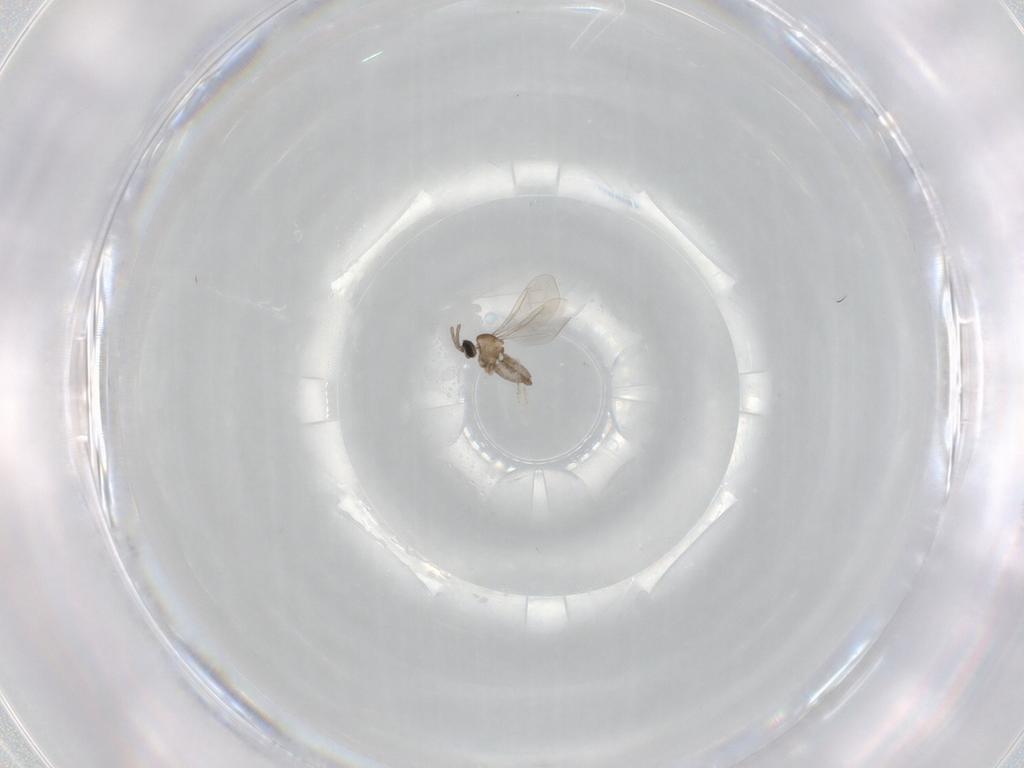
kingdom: Animalia
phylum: Arthropoda
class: Insecta
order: Diptera
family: Cecidomyiidae
